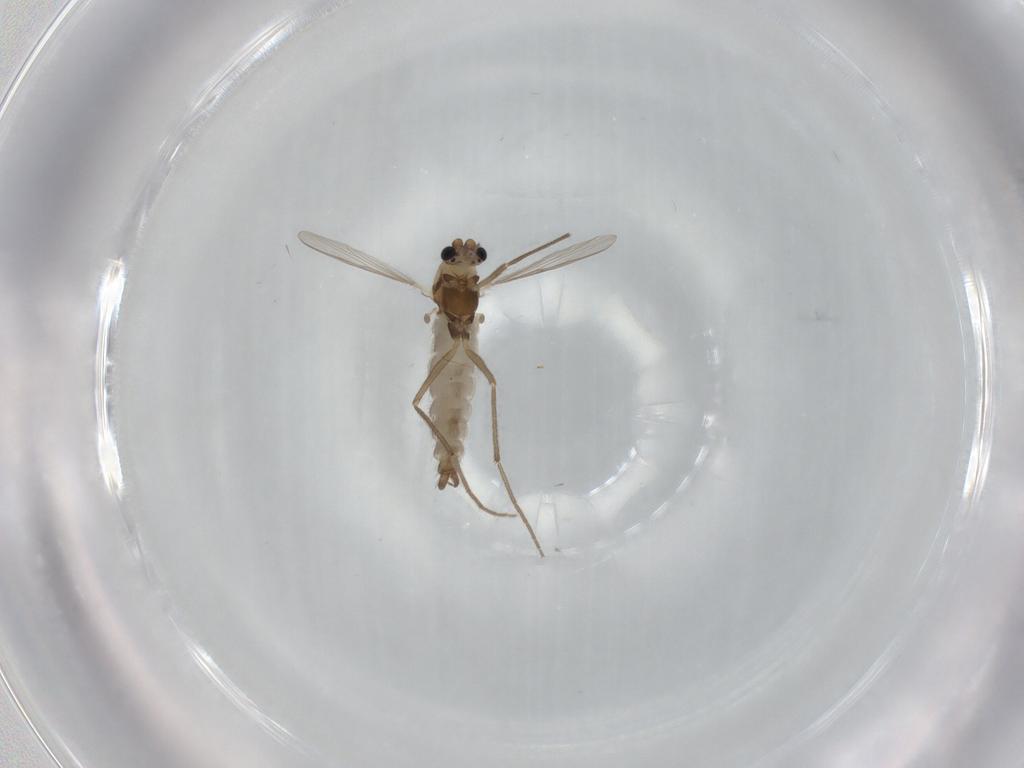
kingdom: Animalia
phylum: Arthropoda
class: Insecta
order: Diptera
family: Chironomidae
